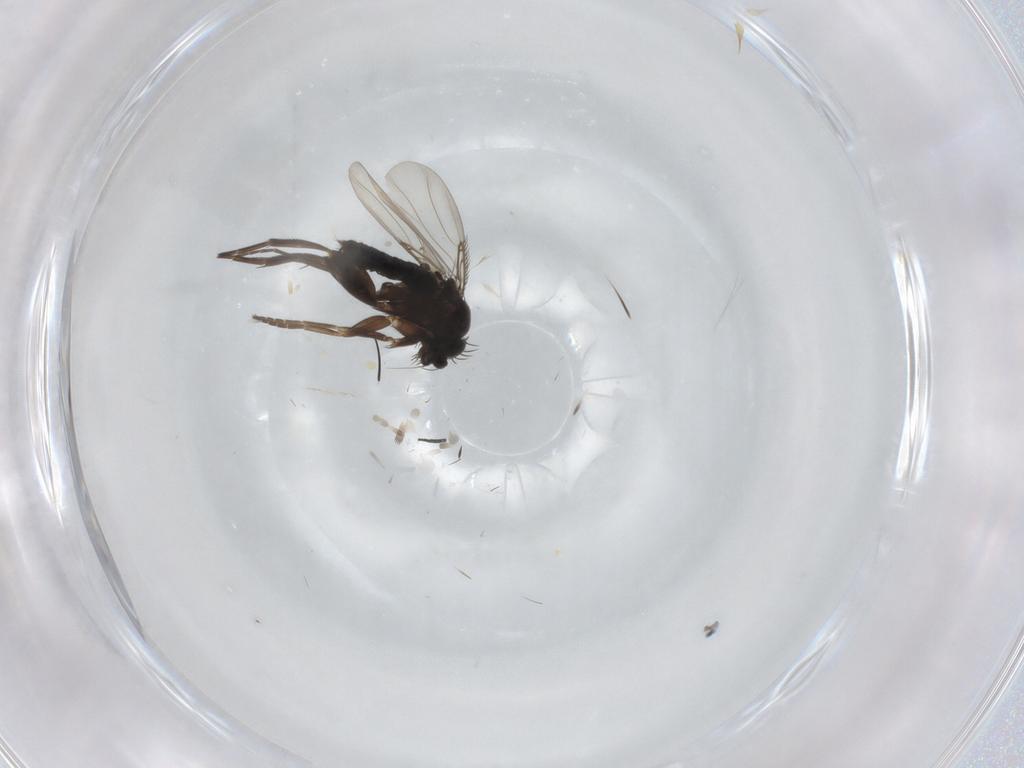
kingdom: Animalia
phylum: Arthropoda
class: Insecta
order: Diptera
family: Phoridae
